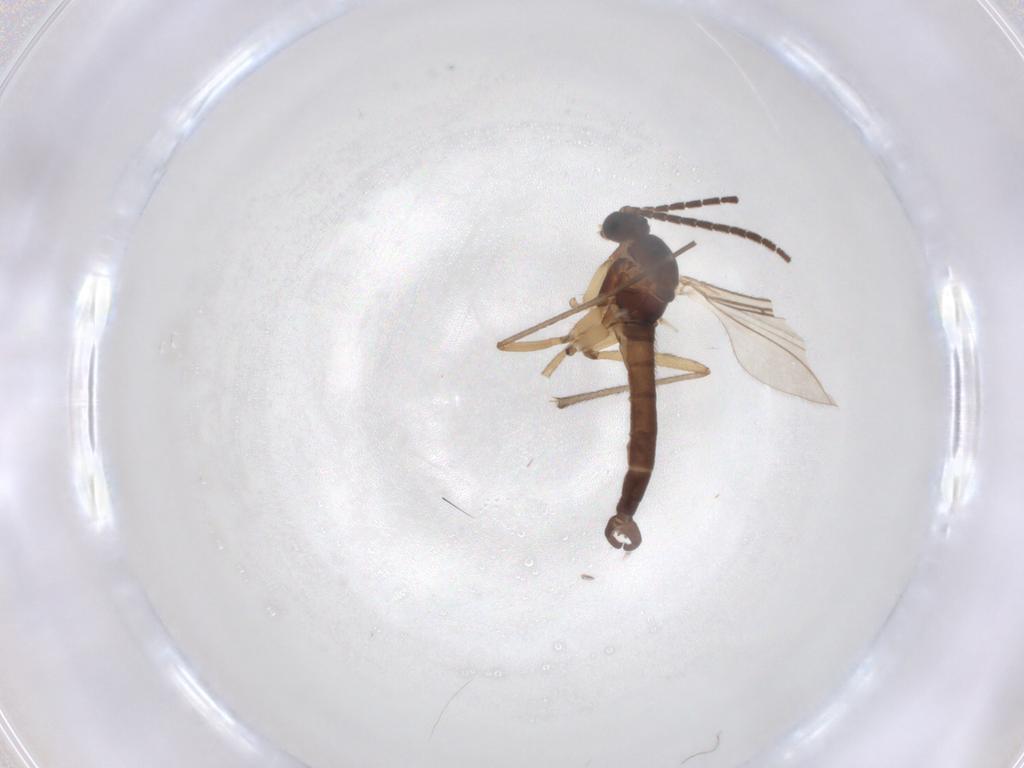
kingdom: Animalia
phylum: Arthropoda
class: Insecta
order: Diptera
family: Sciaridae
